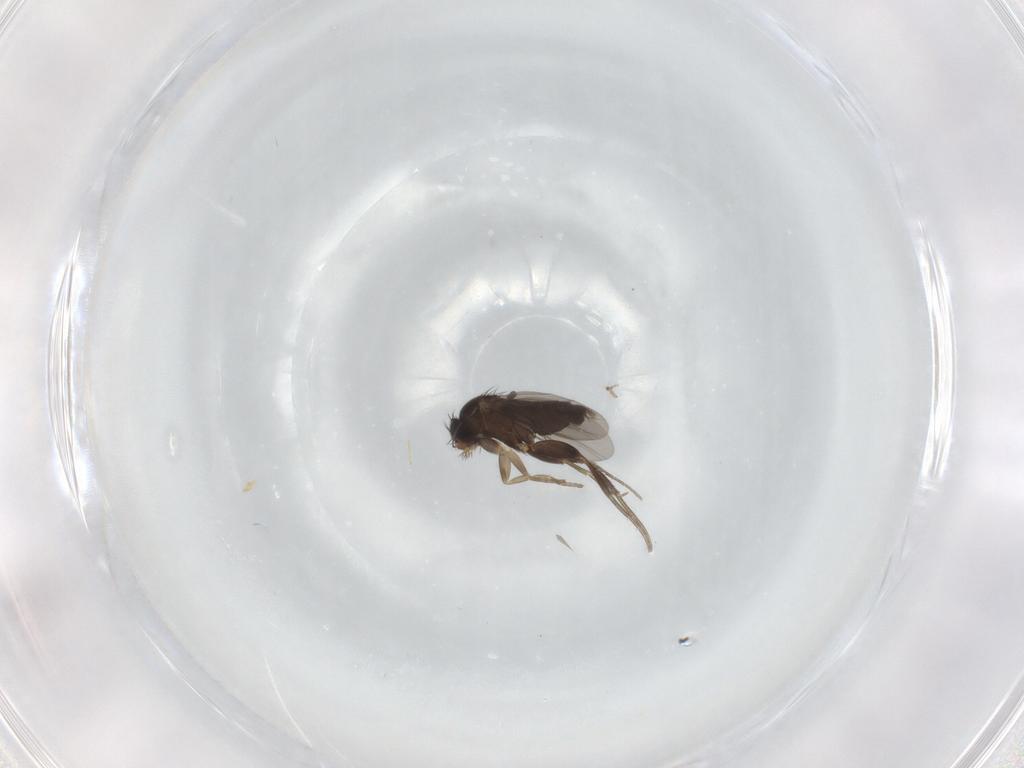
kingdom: Animalia
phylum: Arthropoda
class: Insecta
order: Diptera
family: Phoridae
